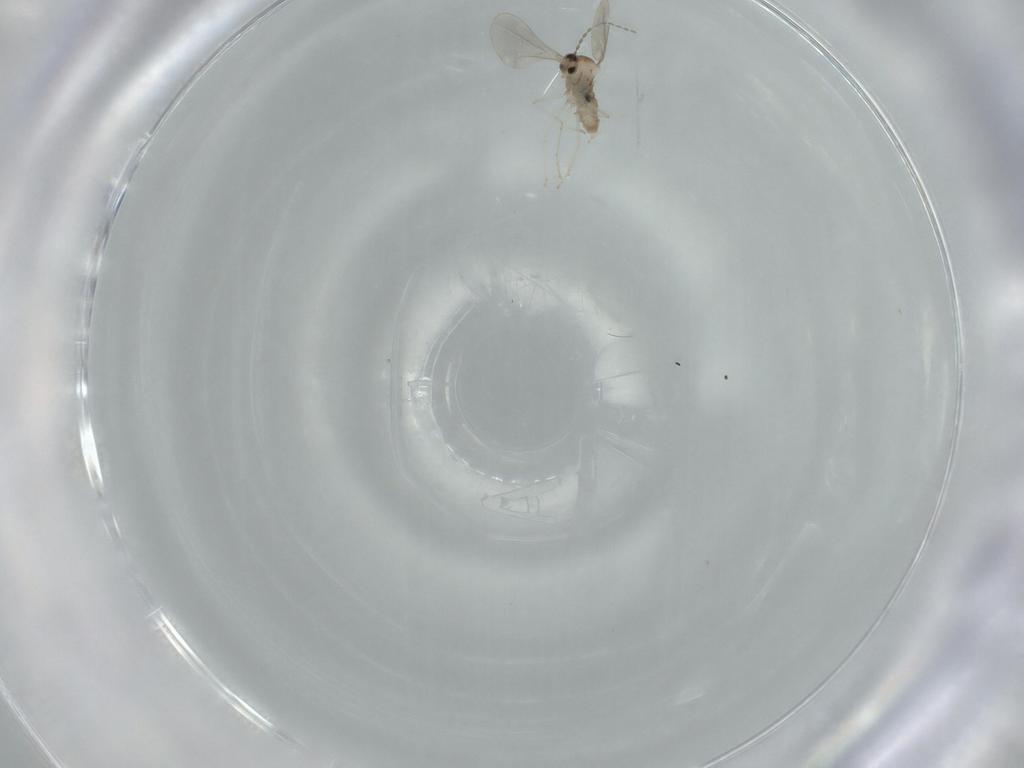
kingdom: Animalia
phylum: Arthropoda
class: Insecta
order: Diptera
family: Cecidomyiidae
